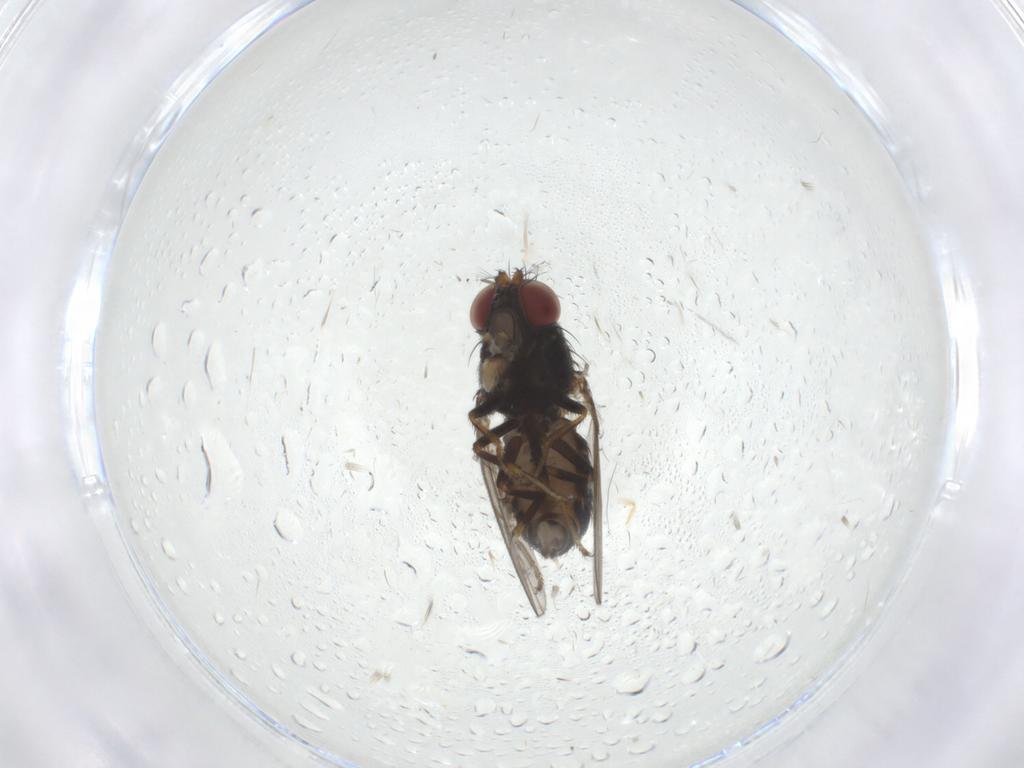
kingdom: Animalia
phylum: Arthropoda
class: Insecta
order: Diptera
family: Ephydridae
